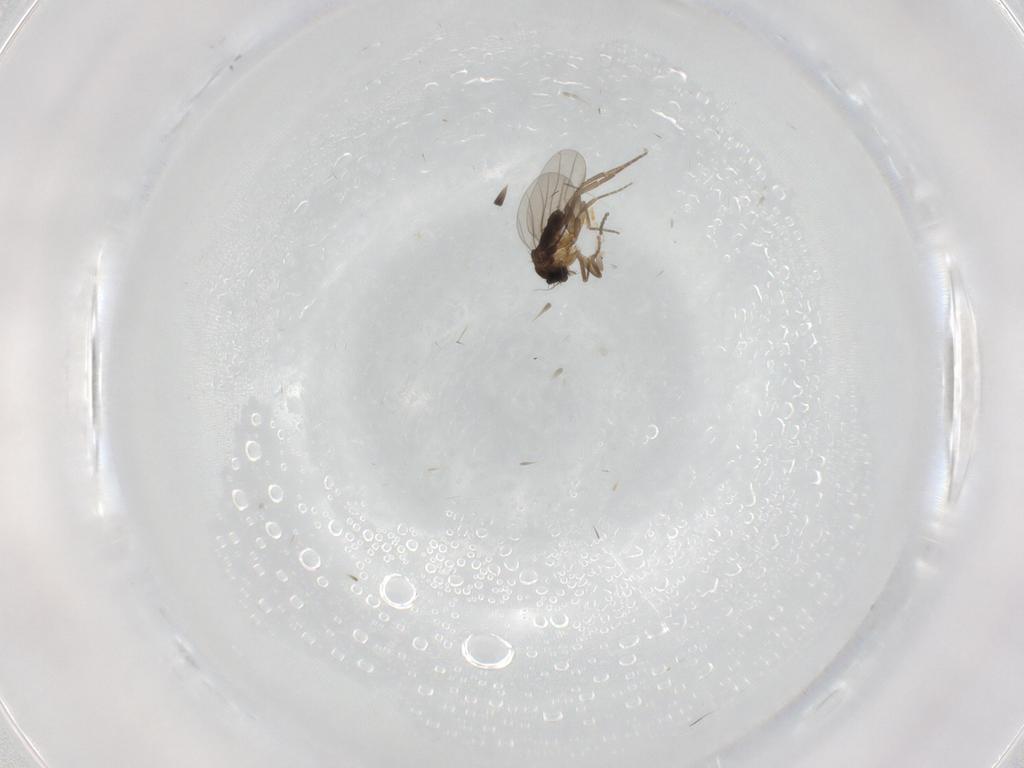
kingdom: Animalia
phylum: Arthropoda
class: Insecta
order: Diptera
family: Phoridae
